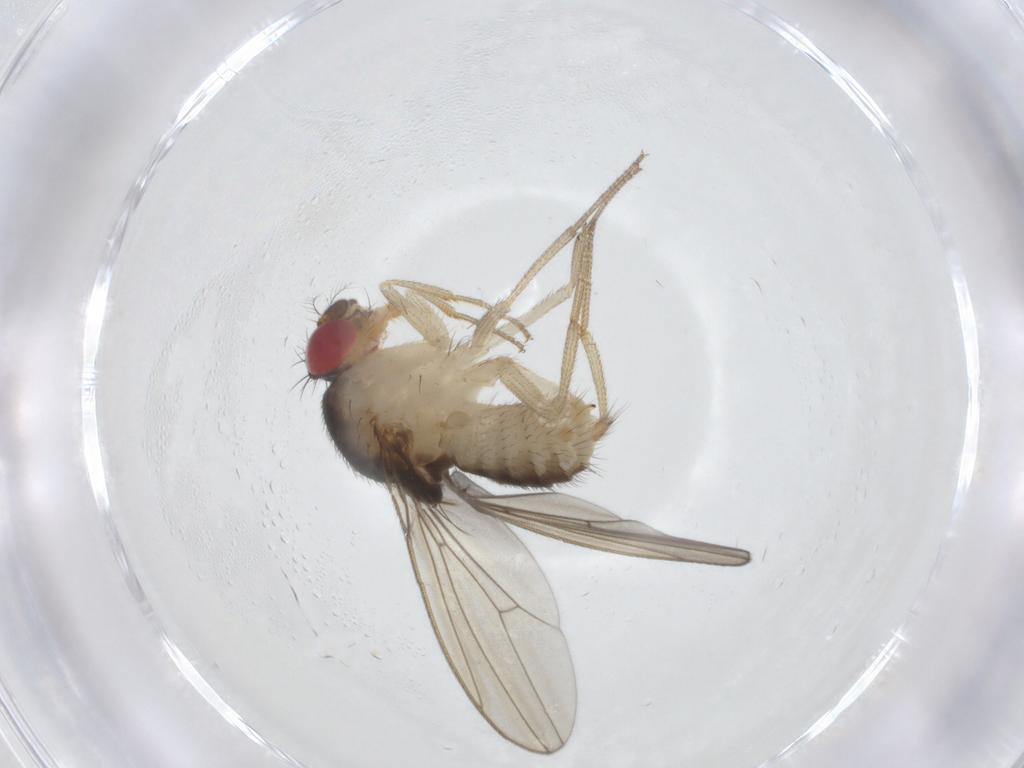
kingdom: Animalia
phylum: Arthropoda
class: Insecta
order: Diptera
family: Drosophilidae
